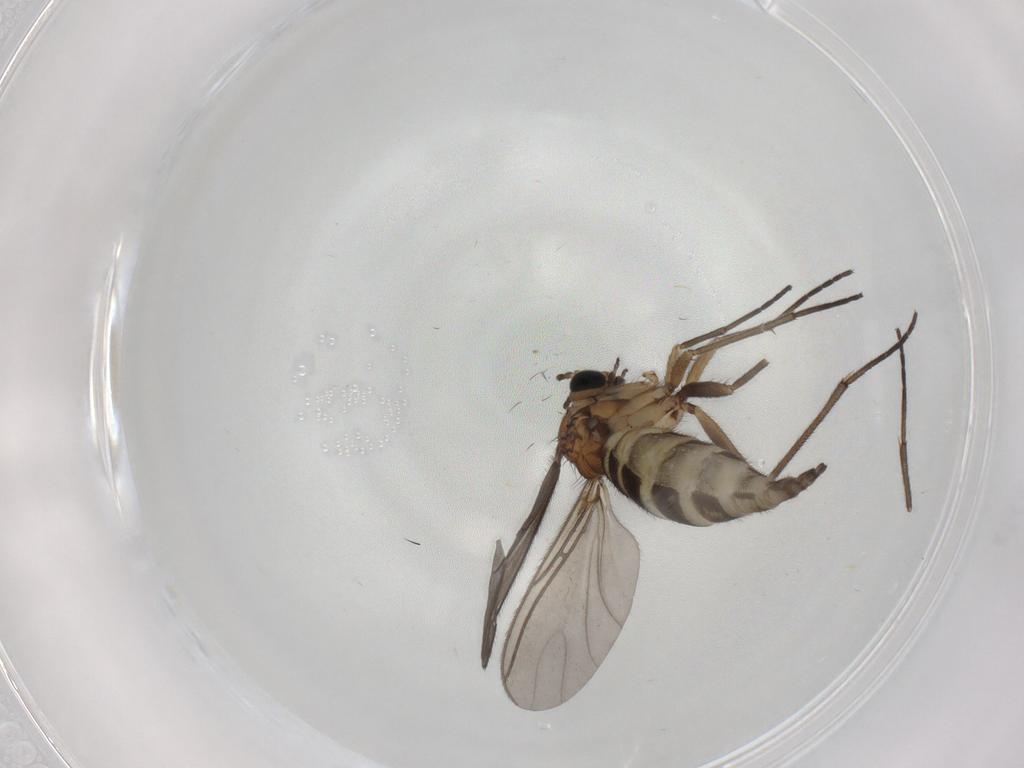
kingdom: Animalia
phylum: Arthropoda
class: Insecta
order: Diptera
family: Sciaridae
